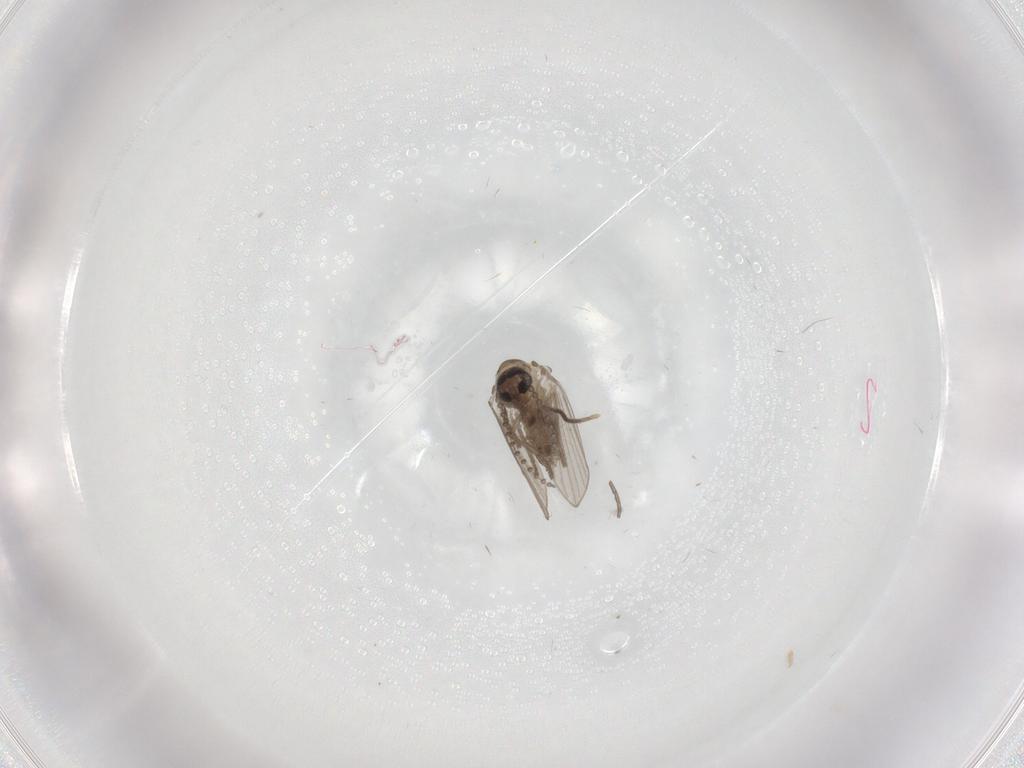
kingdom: Animalia
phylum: Arthropoda
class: Insecta
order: Diptera
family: Sciaridae
